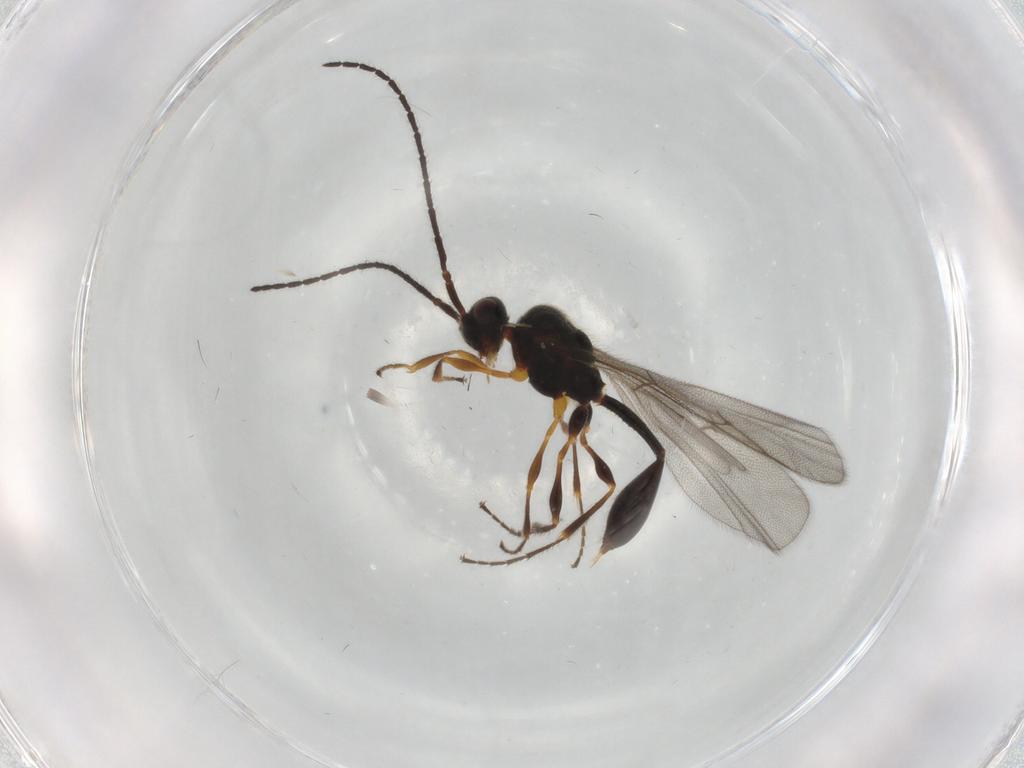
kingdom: Animalia
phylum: Arthropoda
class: Insecta
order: Hymenoptera
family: Diapriidae
